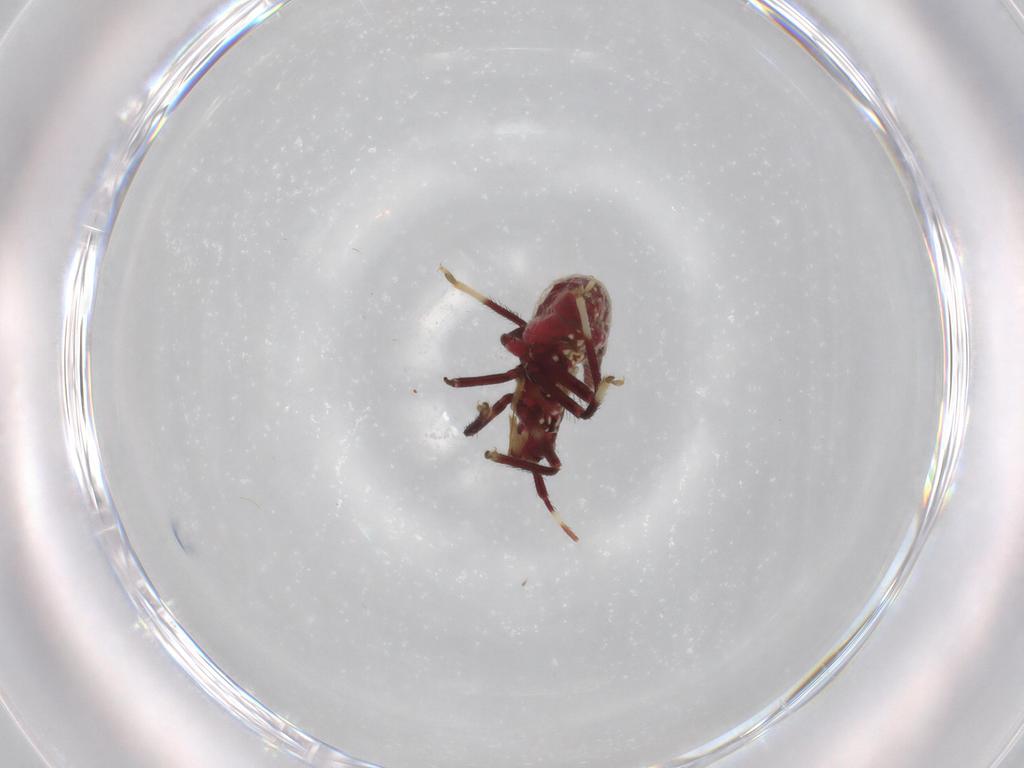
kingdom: Animalia
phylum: Arthropoda
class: Insecta
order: Hemiptera
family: Miridae
